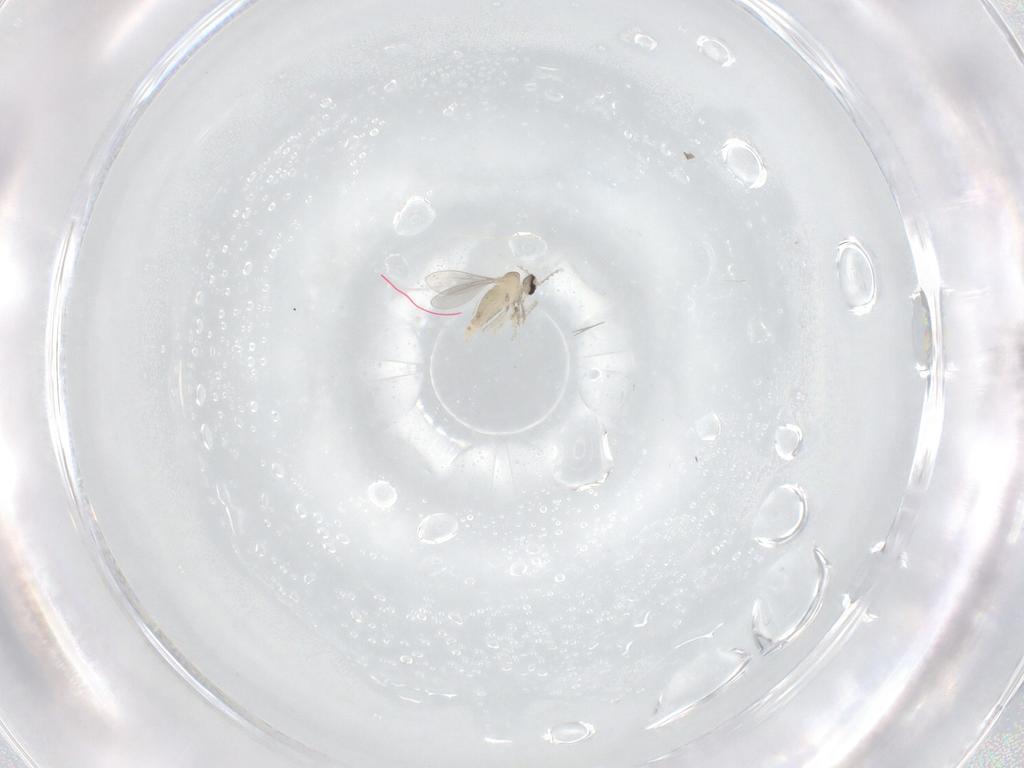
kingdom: Animalia
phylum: Arthropoda
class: Insecta
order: Diptera
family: Cecidomyiidae
